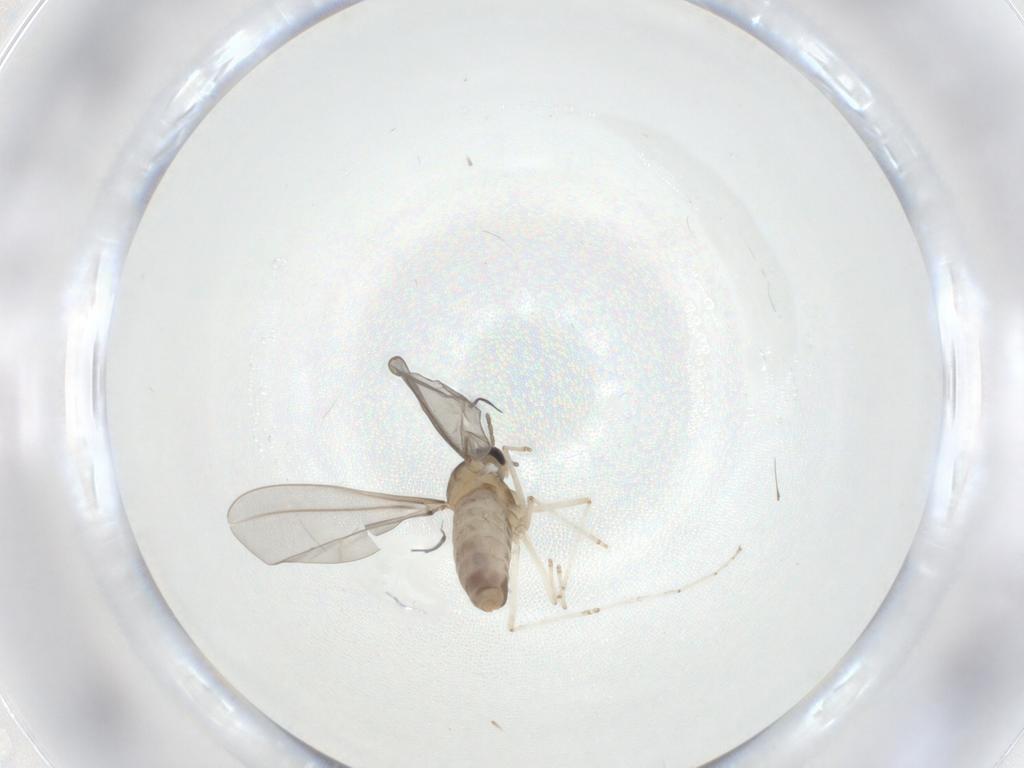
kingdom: Animalia
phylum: Arthropoda
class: Insecta
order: Diptera
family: Cecidomyiidae
